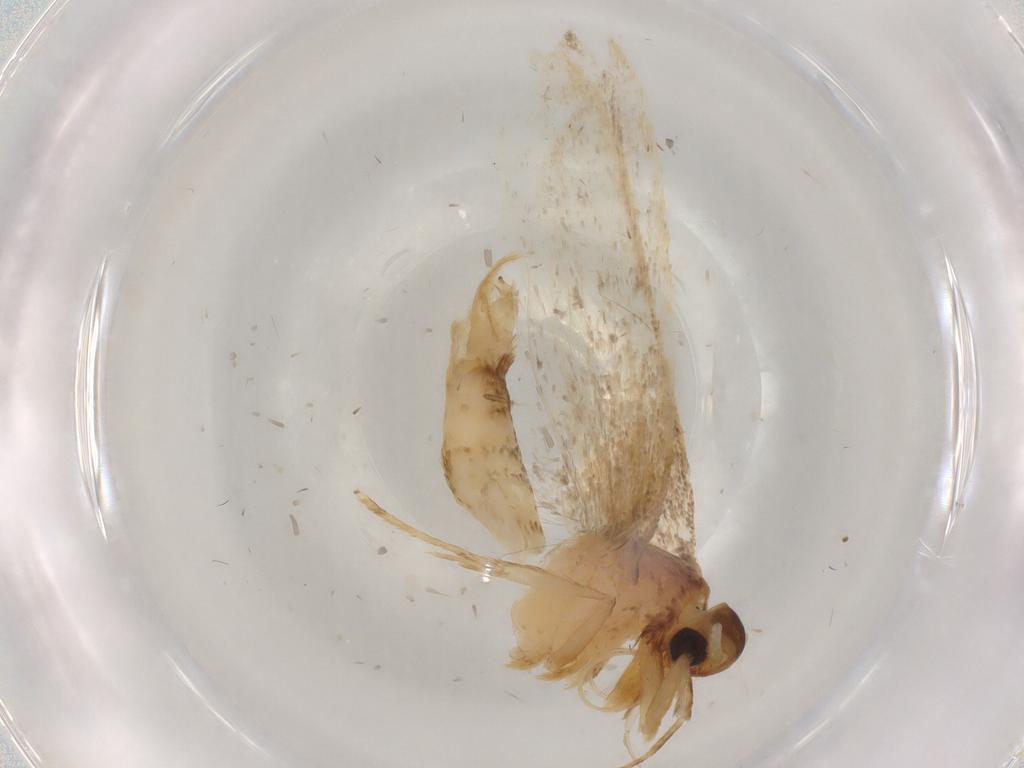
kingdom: Animalia
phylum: Arthropoda
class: Insecta
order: Lepidoptera
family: Lecithoceridae
